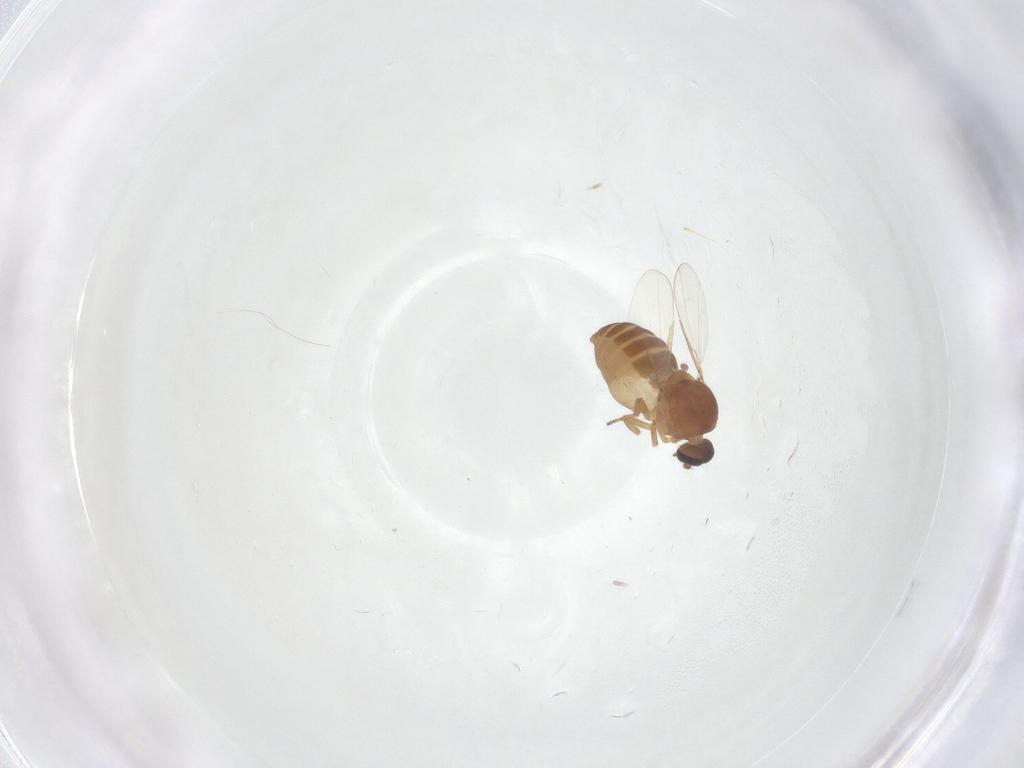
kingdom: Animalia
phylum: Arthropoda
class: Insecta
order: Diptera
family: Ceratopogonidae
